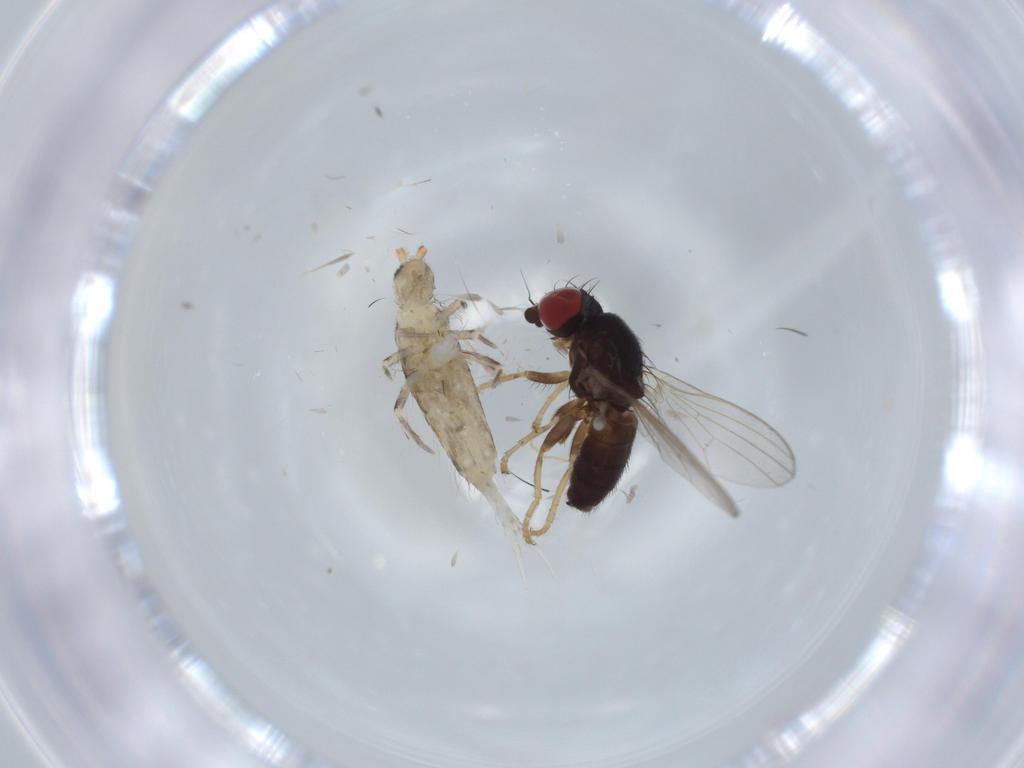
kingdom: Animalia
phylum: Arthropoda
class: Insecta
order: Diptera
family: Chamaemyiidae
